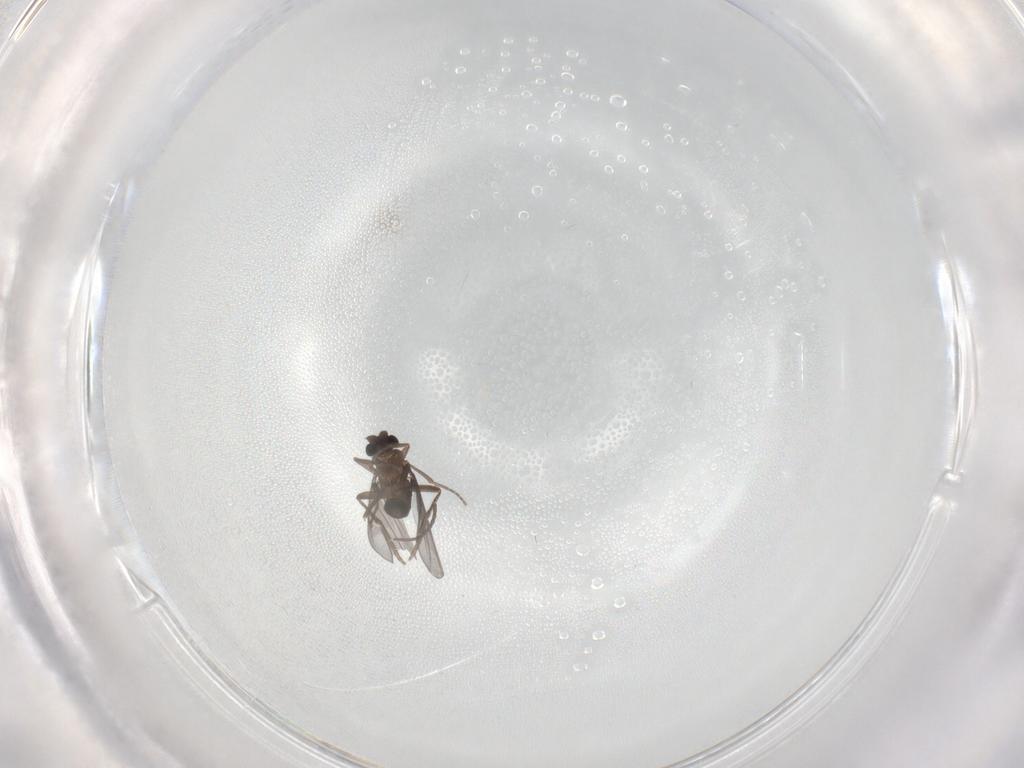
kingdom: Animalia
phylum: Arthropoda
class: Insecta
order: Diptera
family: Cecidomyiidae
